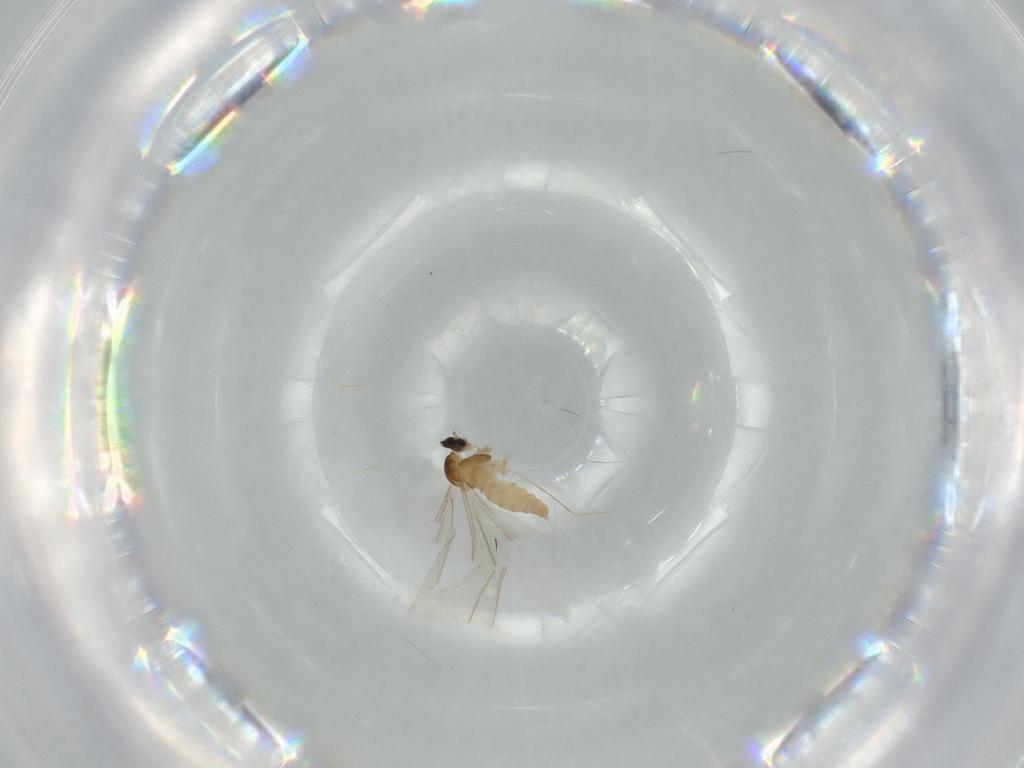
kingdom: Animalia
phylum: Arthropoda
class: Insecta
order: Diptera
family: Cecidomyiidae
